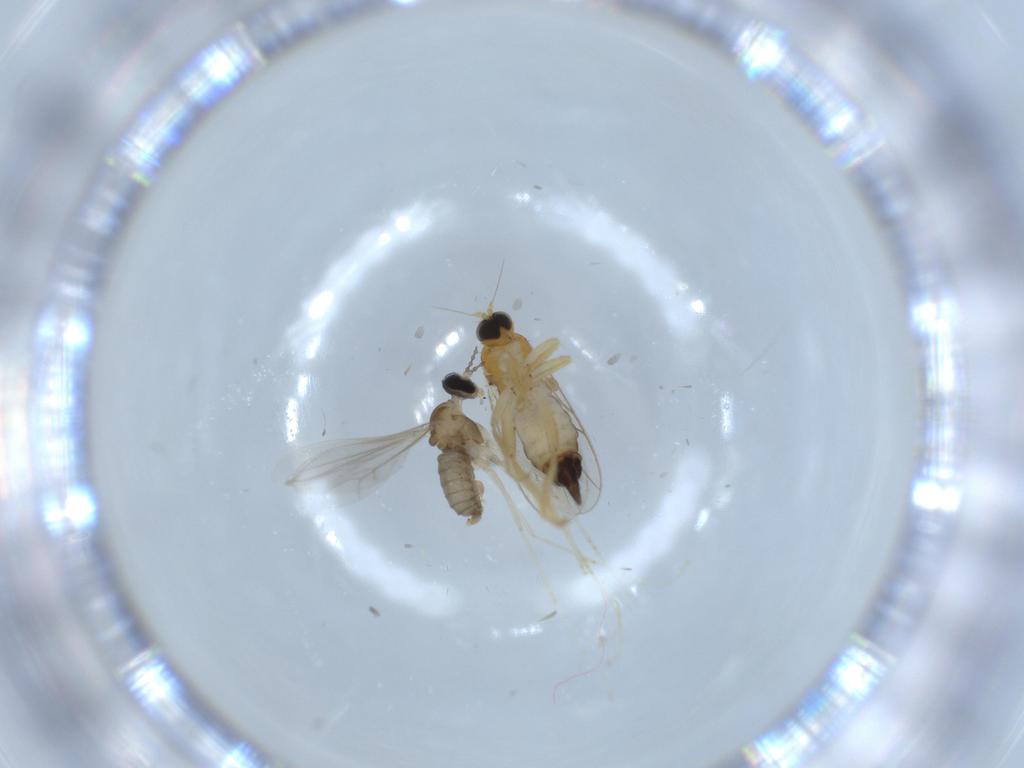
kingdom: Animalia
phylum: Arthropoda
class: Insecta
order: Diptera
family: Hybotidae
